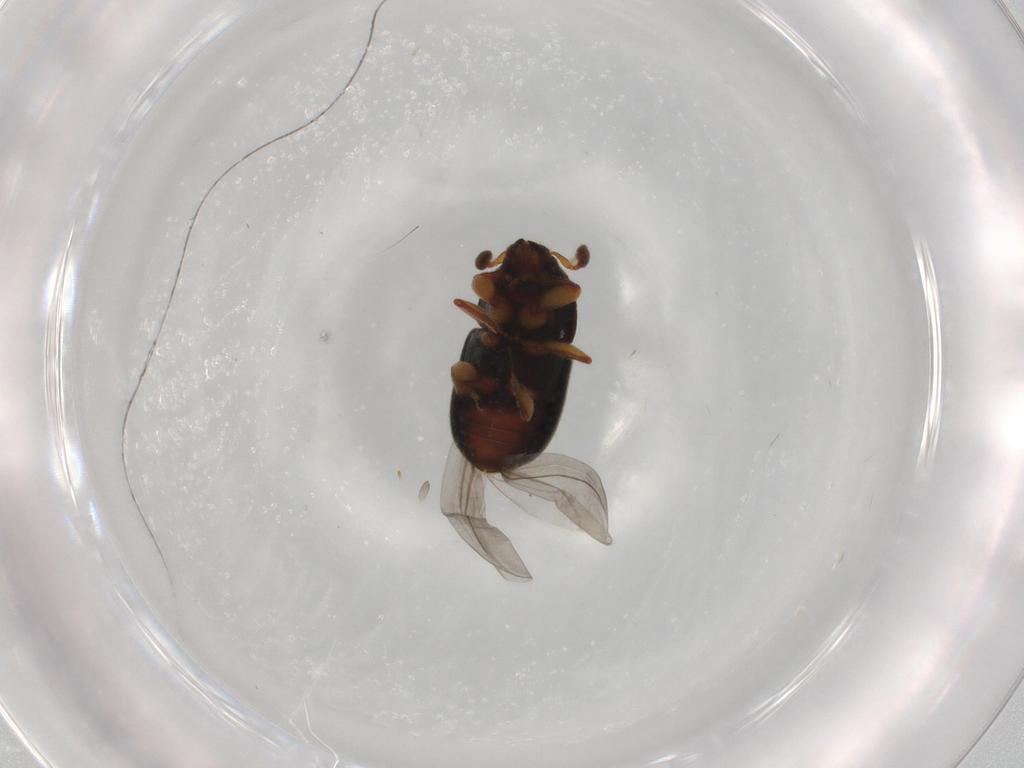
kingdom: Animalia
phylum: Arthropoda
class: Insecta
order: Coleoptera
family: Curculionidae
